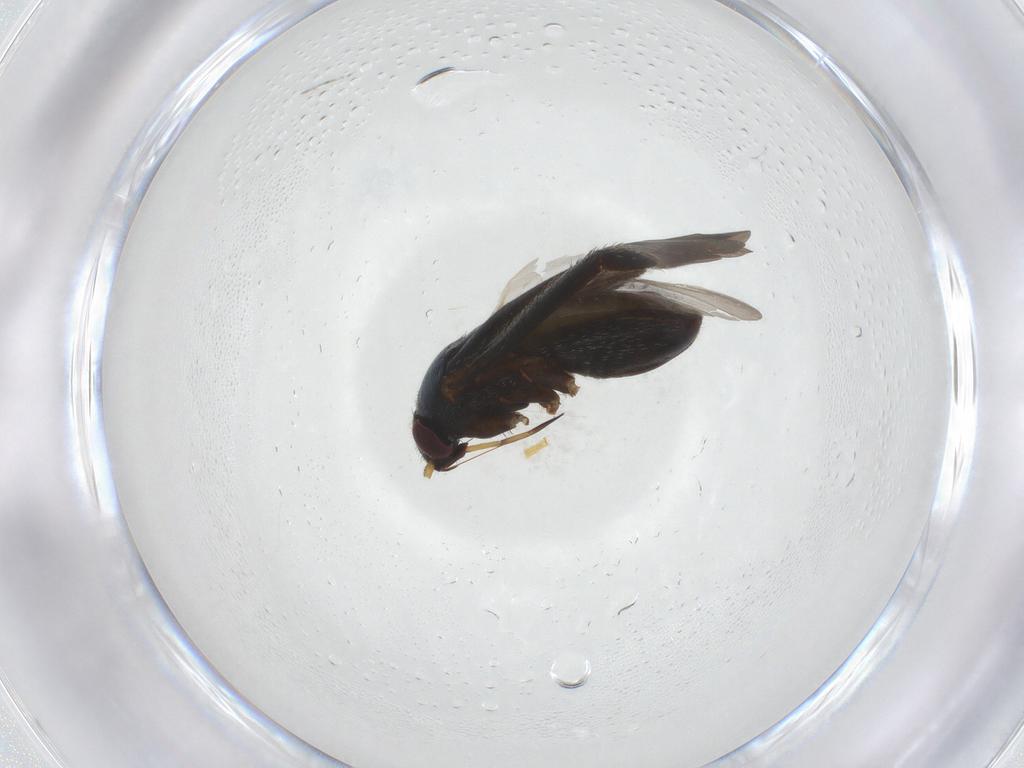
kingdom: Animalia
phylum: Arthropoda
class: Insecta
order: Hemiptera
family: Miridae
